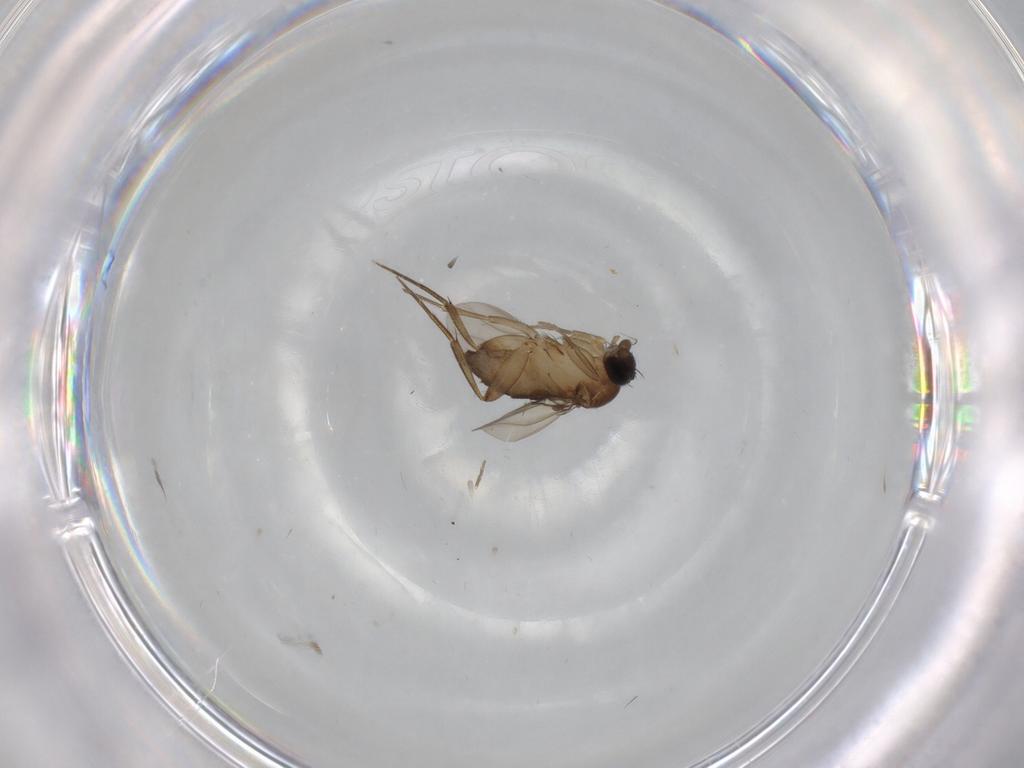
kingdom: Animalia
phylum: Arthropoda
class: Insecta
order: Diptera
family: Phoridae
